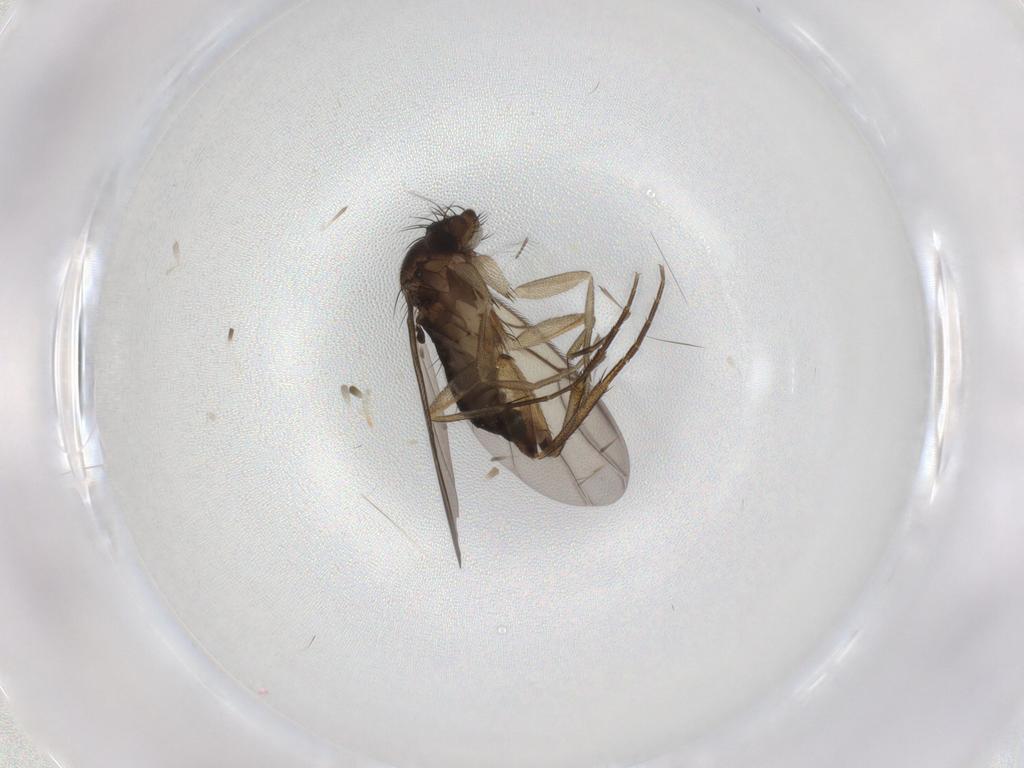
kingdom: Animalia
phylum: Arthropoda
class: Insecta
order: Diptera
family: Phoridae
